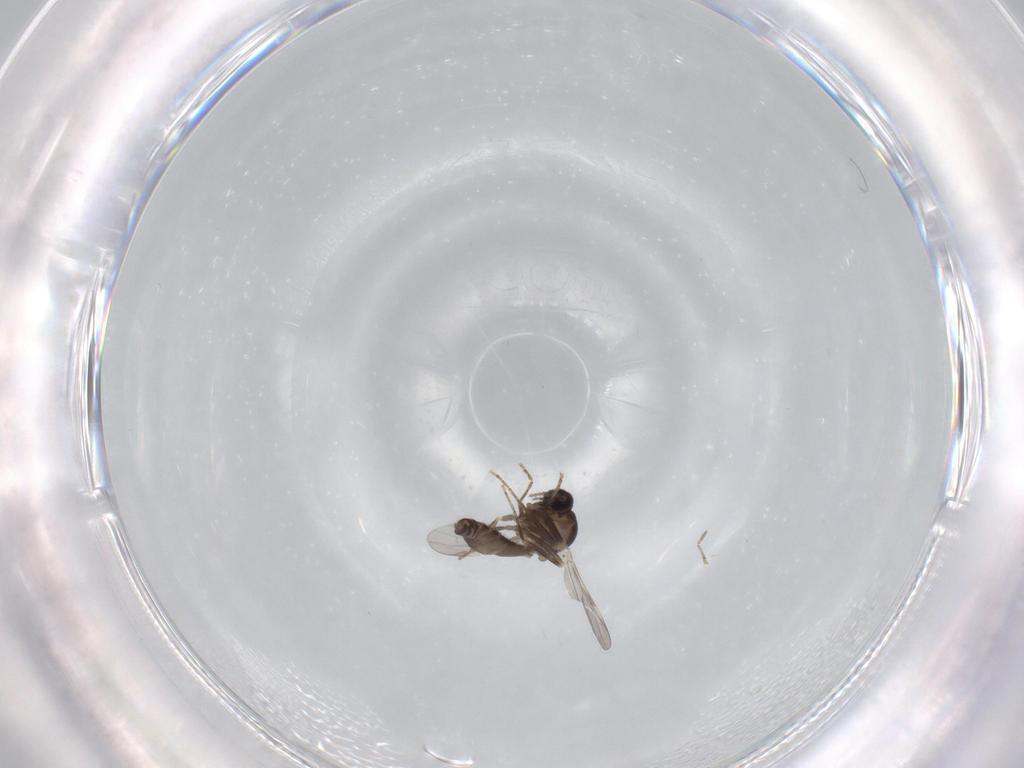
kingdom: Animalia
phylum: Arthropoda
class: Insecta
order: Diptera
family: Ceratopogonidae
